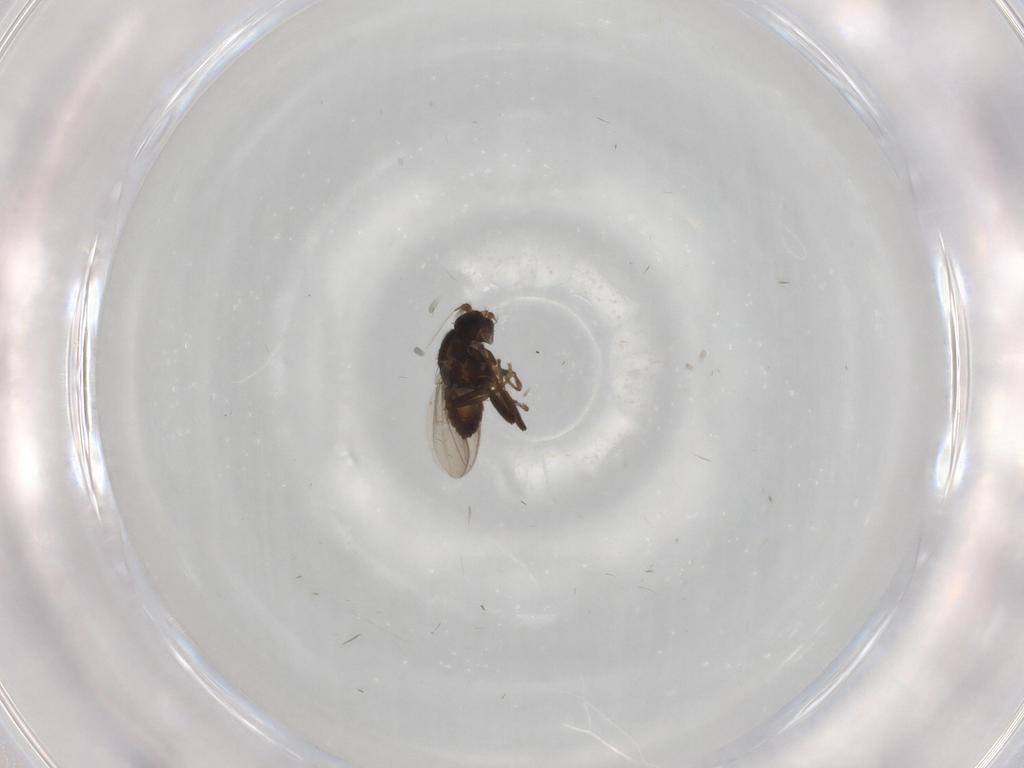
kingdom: Animalia
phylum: Arthropoda
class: Insecta
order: Diptera
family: Sphaeroceridae
